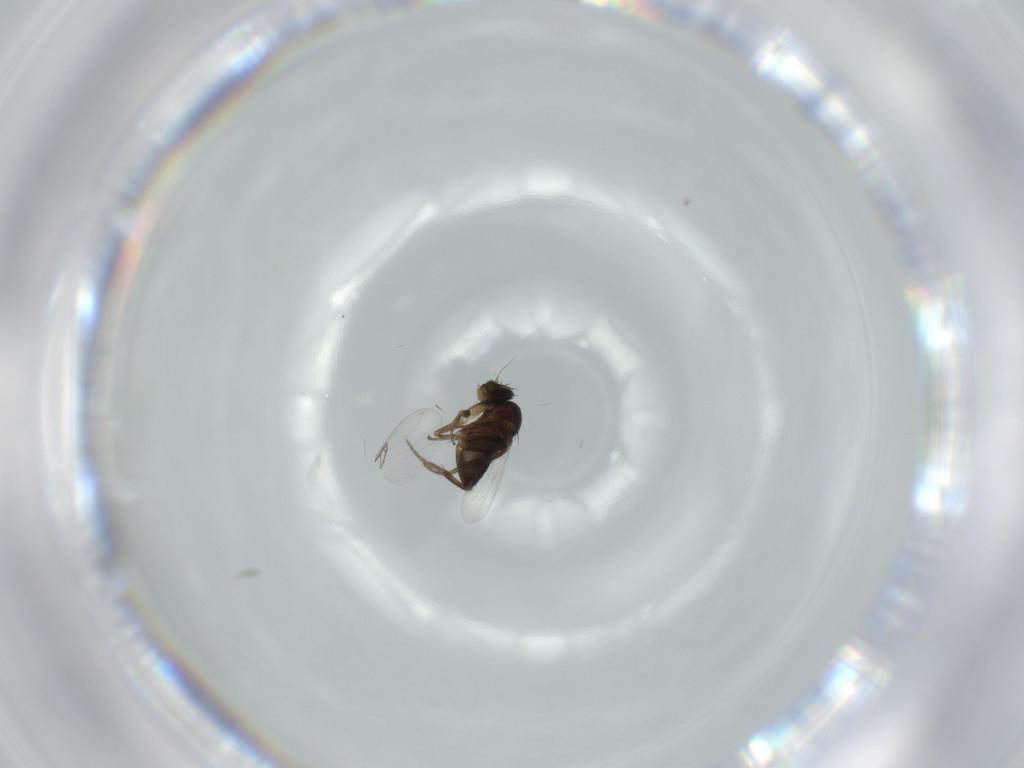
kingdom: Animalia
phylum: Arthropoda
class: Insecta
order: Diptera
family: Phoridae
